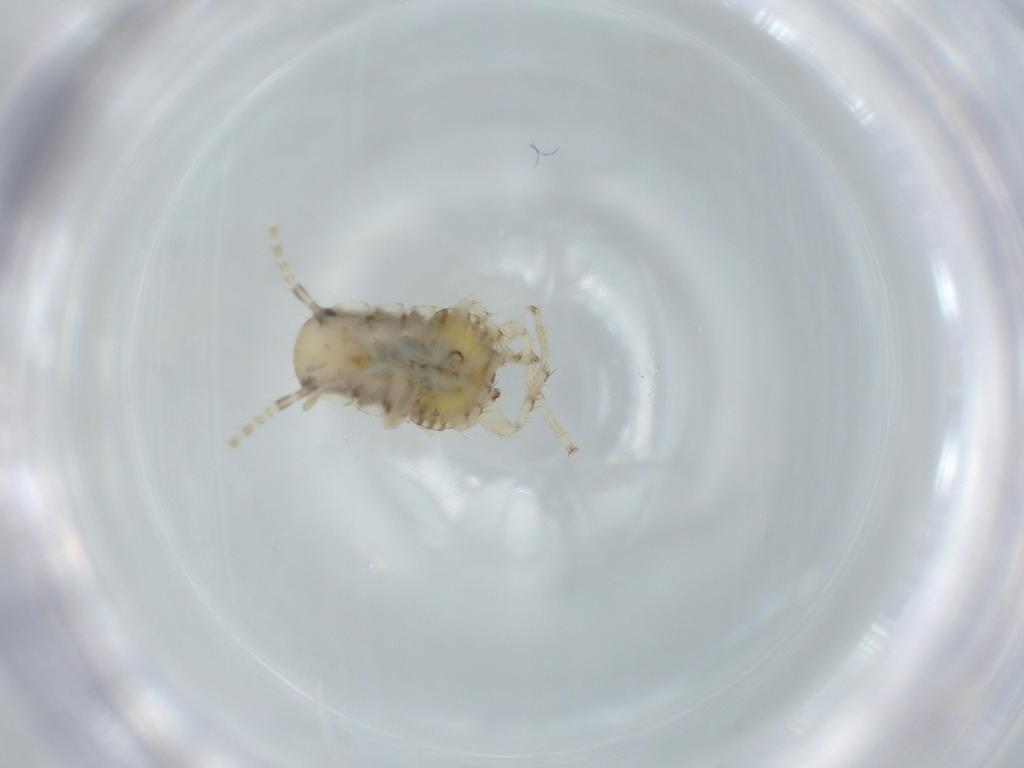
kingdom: Animalia
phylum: Arthropoda
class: Insecta
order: Blattodea
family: Ectobiidae
